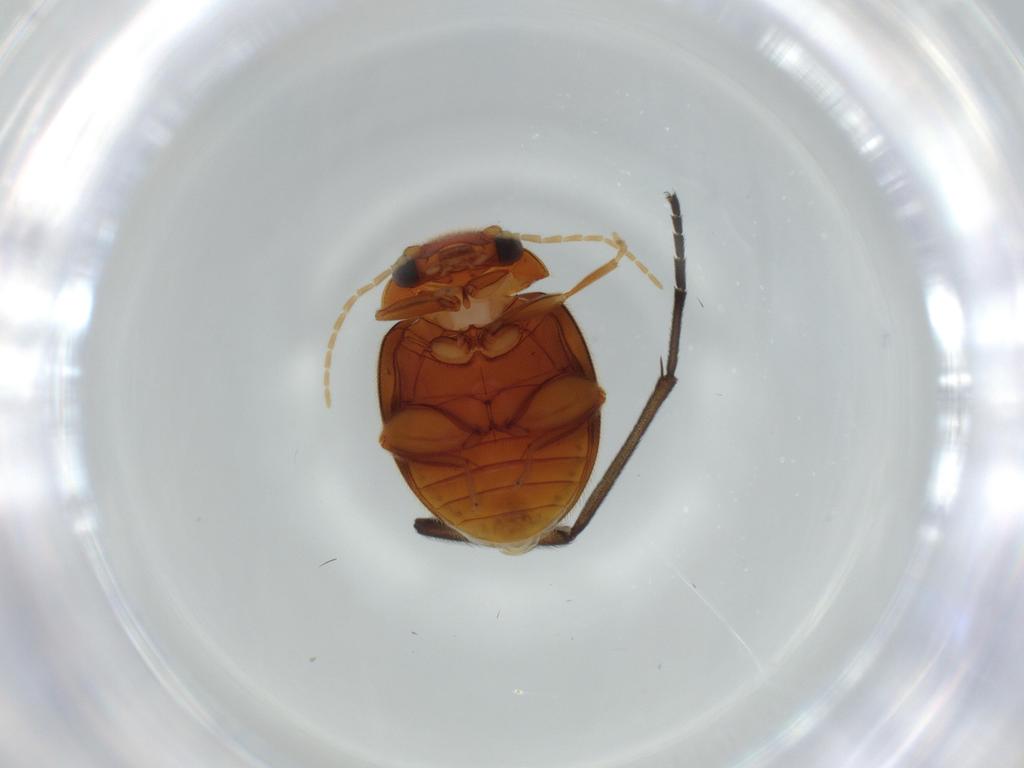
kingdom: Animalia
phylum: Arthropoda
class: Insecta
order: Coleoptera
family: Scirtidae
